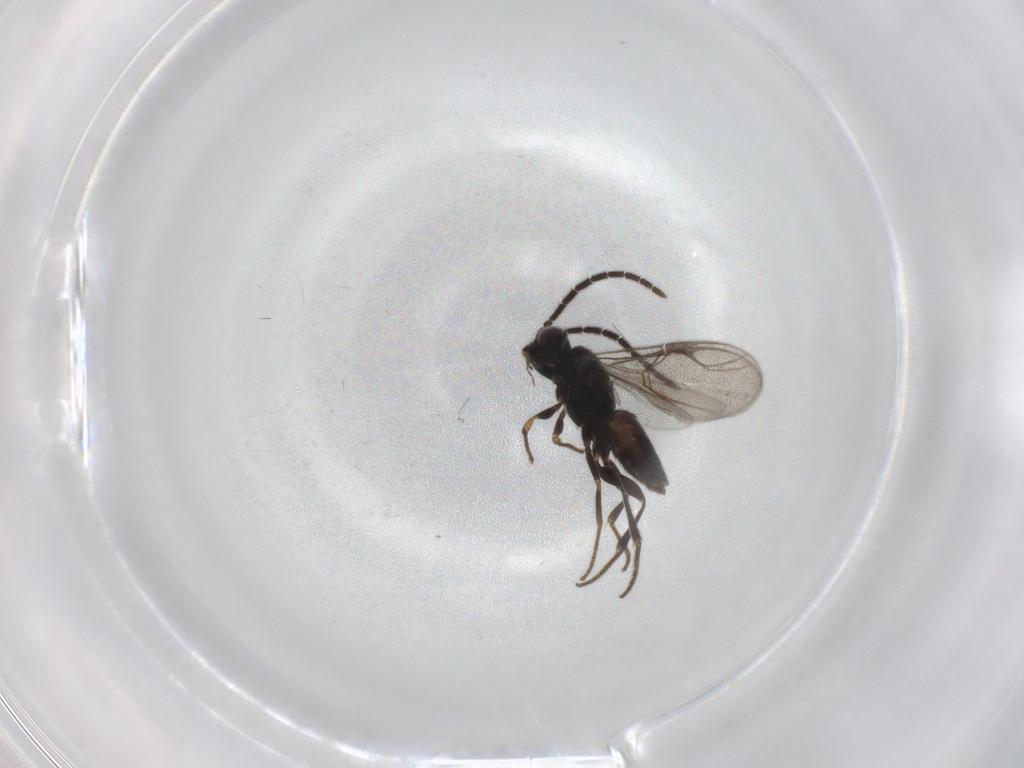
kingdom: Animalia
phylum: Arthropoda
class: Insecta
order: Hymenoptera
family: Dryinidae
